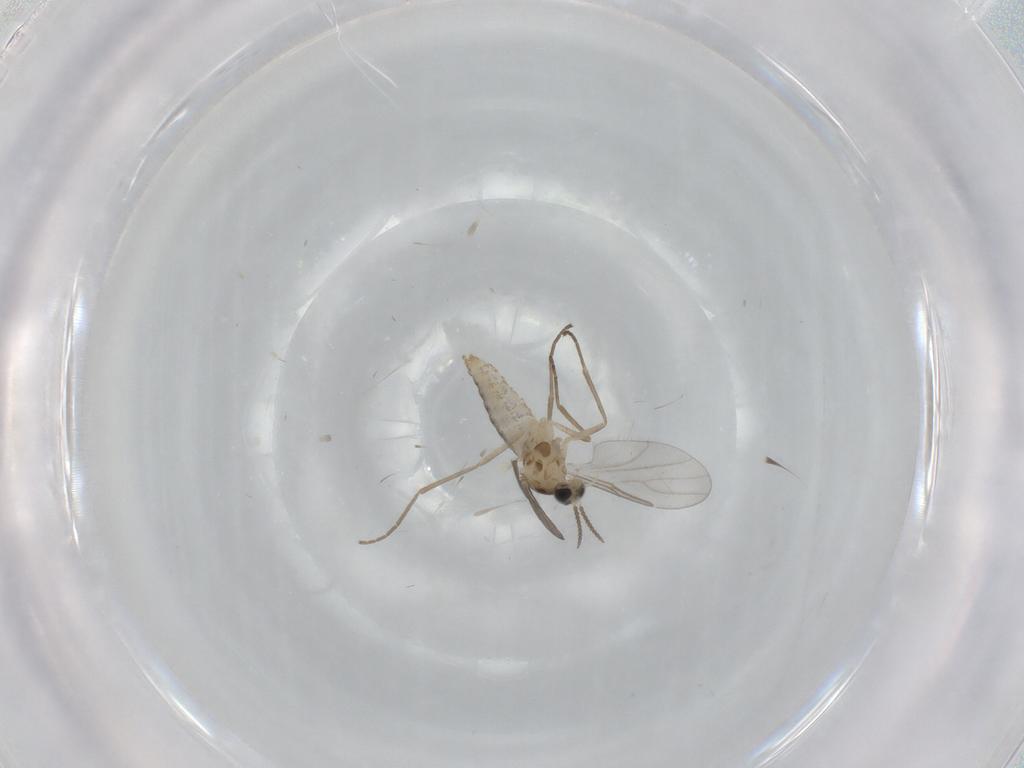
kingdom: Animalia
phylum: Arthropoda
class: Insecta
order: Diptera
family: Phoridae
